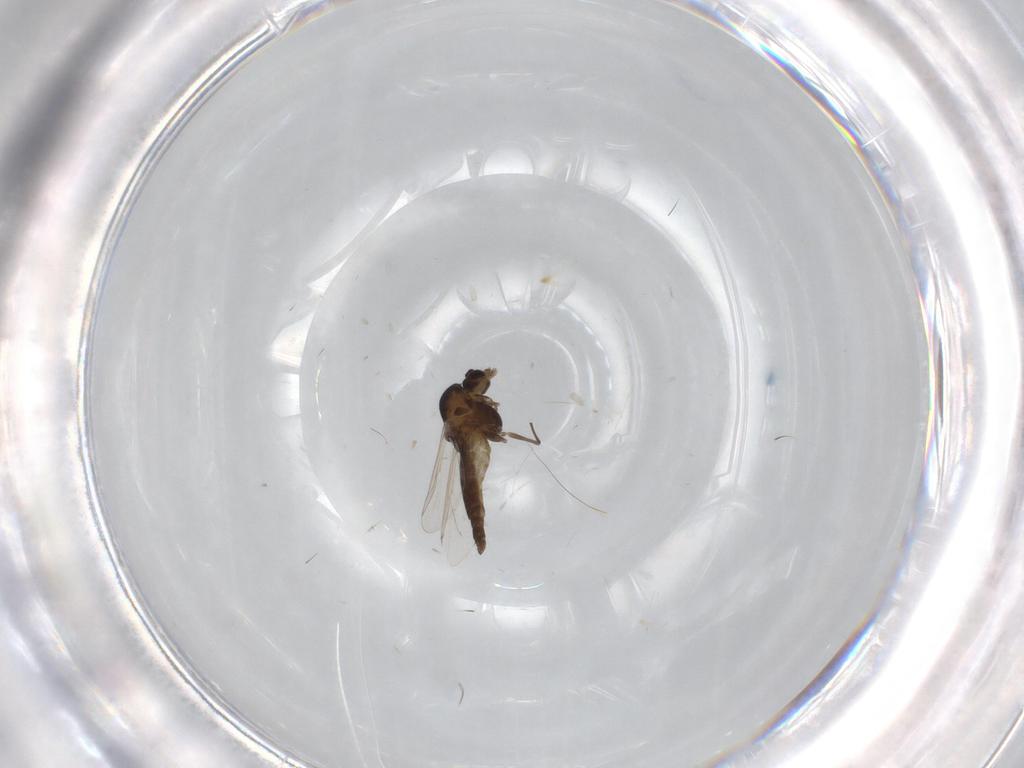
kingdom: Animalia
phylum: Arthropoda
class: Insecta
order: Diptera
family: Chironomidae
